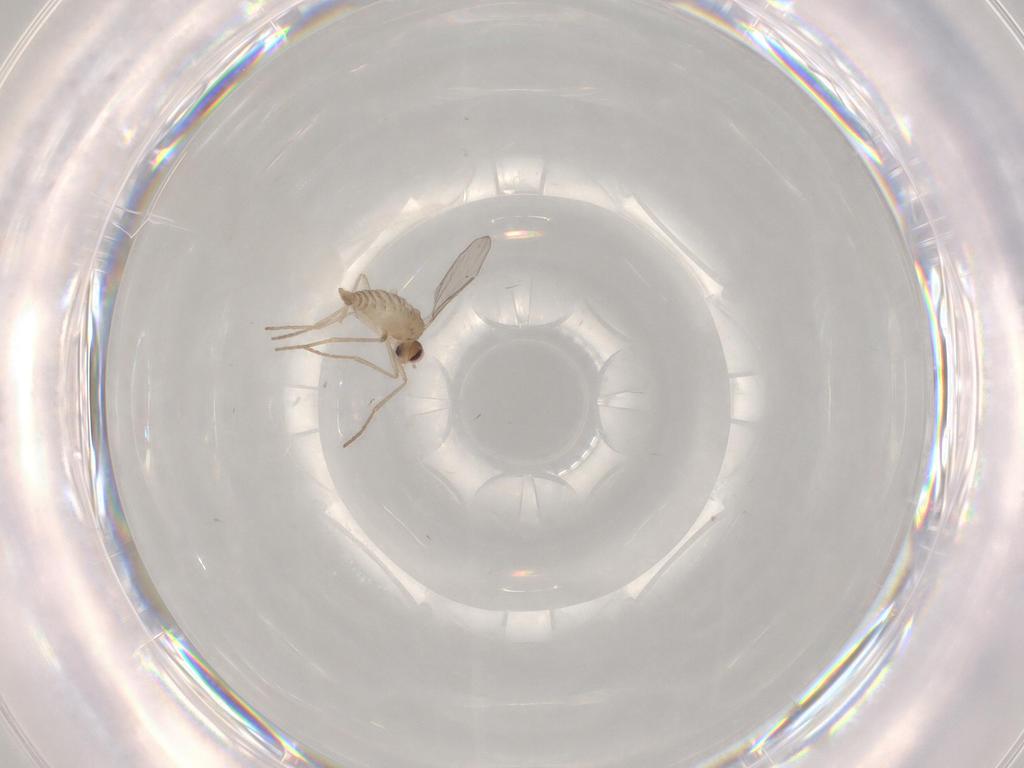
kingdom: Animalia
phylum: Arthropoda
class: Insecta
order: Diptera
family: Cecidomyiidae
